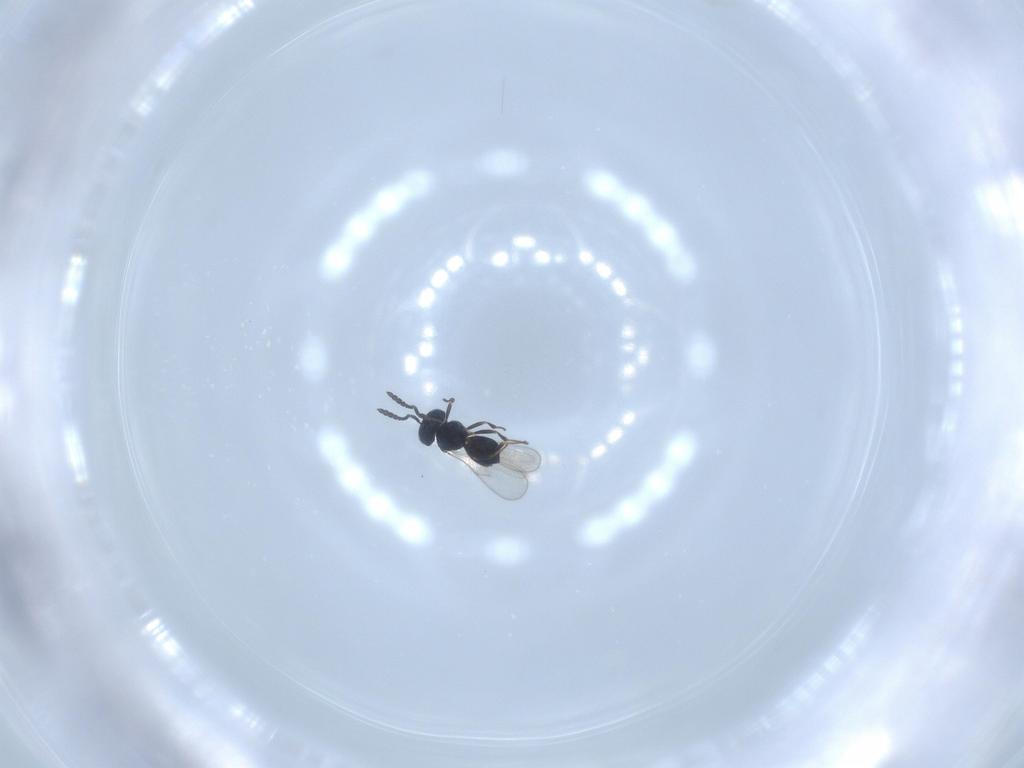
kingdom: Animalia
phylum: Arthropoda
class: Insecta
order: Hymenoptera
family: Scelionidae
